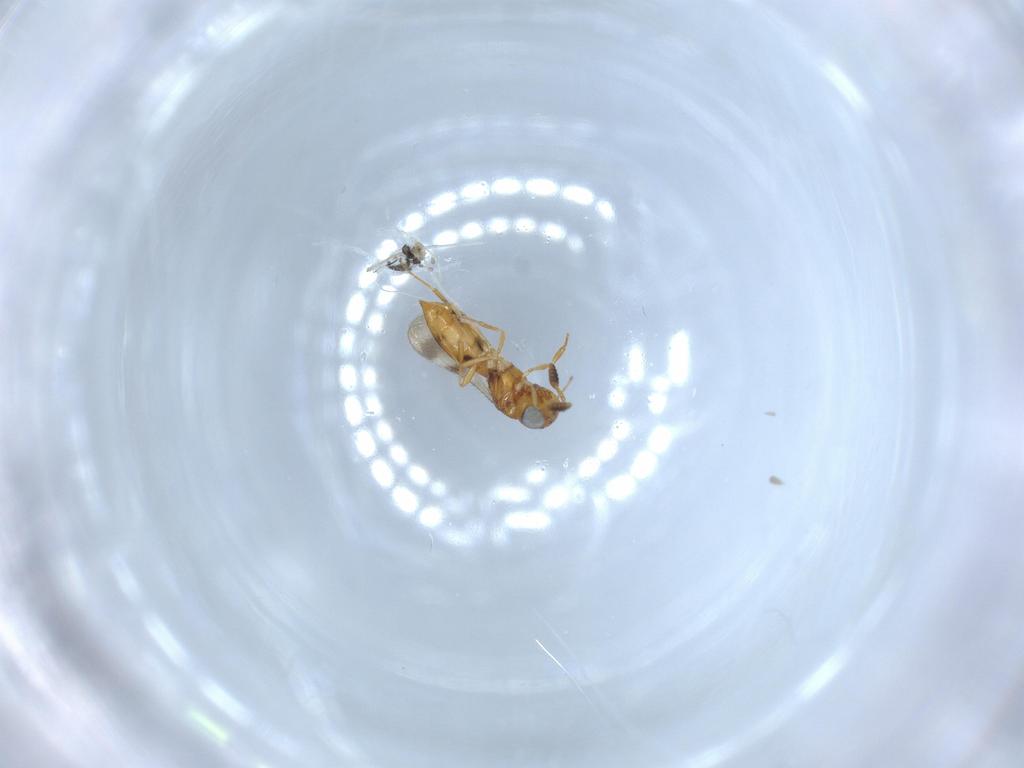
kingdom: Animalia
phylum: Arthropoda
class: Insecta
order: Hymenoptera
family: Scelionidae
